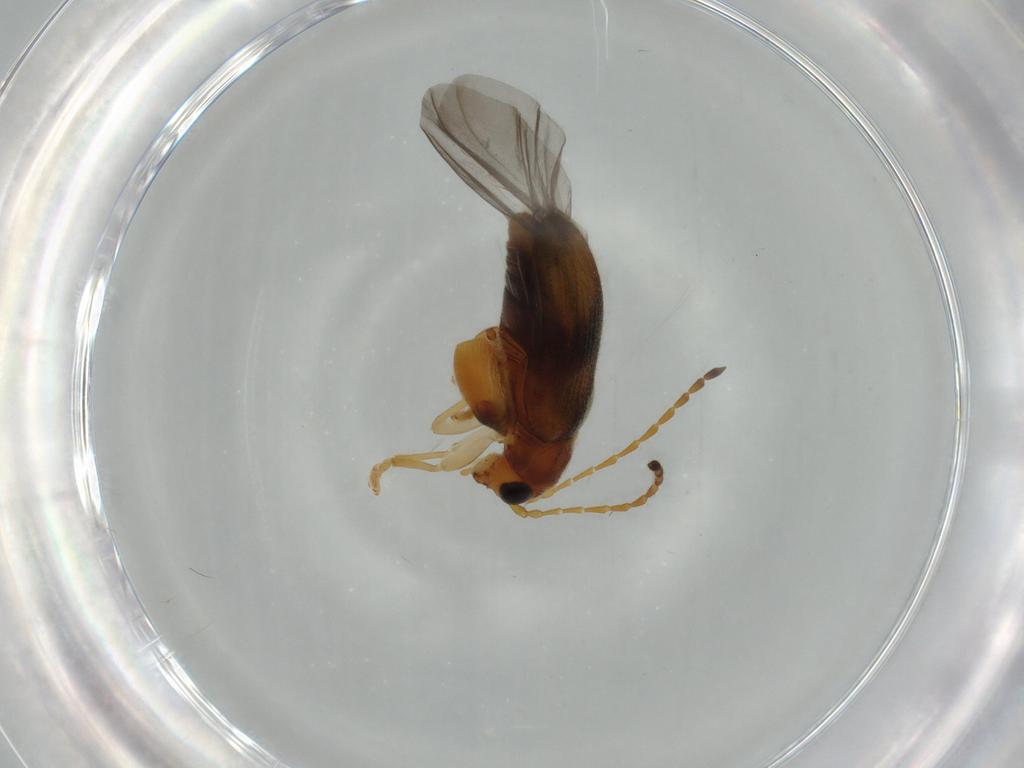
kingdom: Animalia
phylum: Arthropoda
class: Insecta
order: Coleoptera
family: Chrysomelidae
